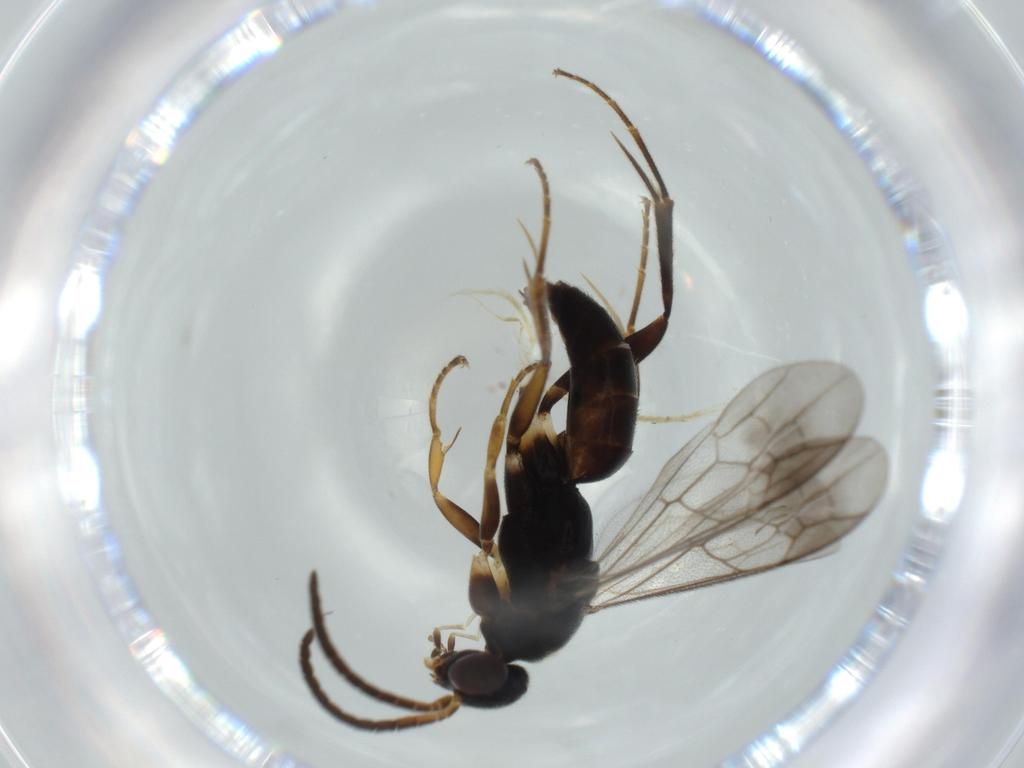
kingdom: Animalia
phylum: Arthropoda
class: Insecta
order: Hymenoptera
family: Pompilidae
